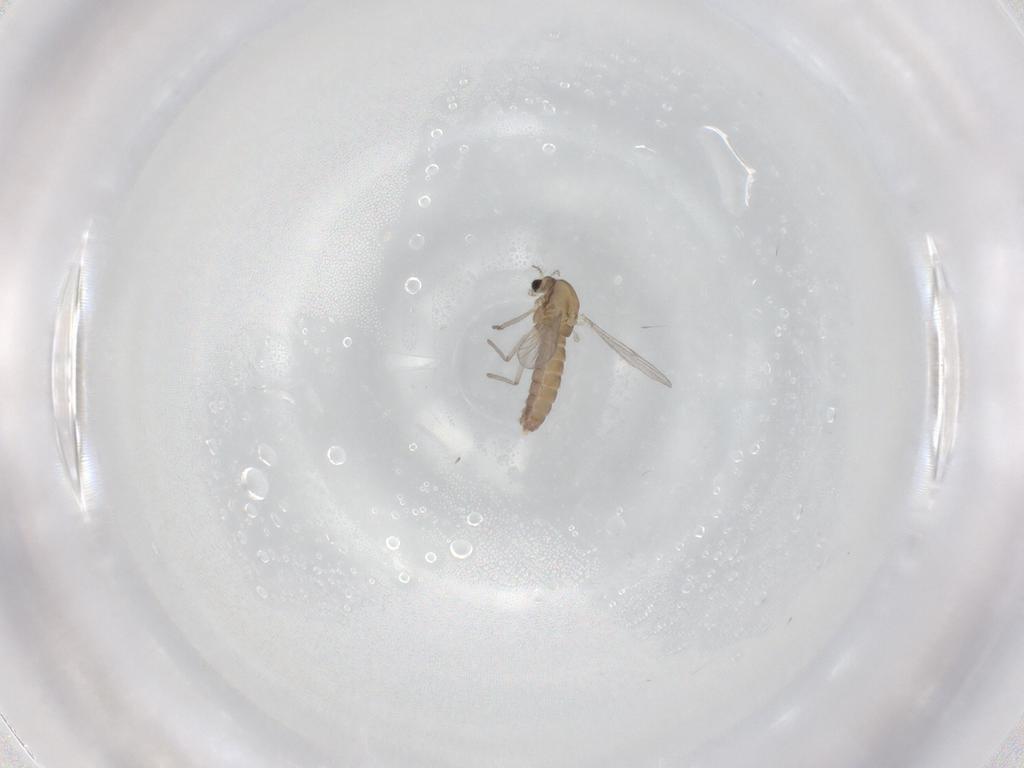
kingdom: Animalia
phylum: Arthropoda
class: Insecta
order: Diptera
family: Chironomidae
